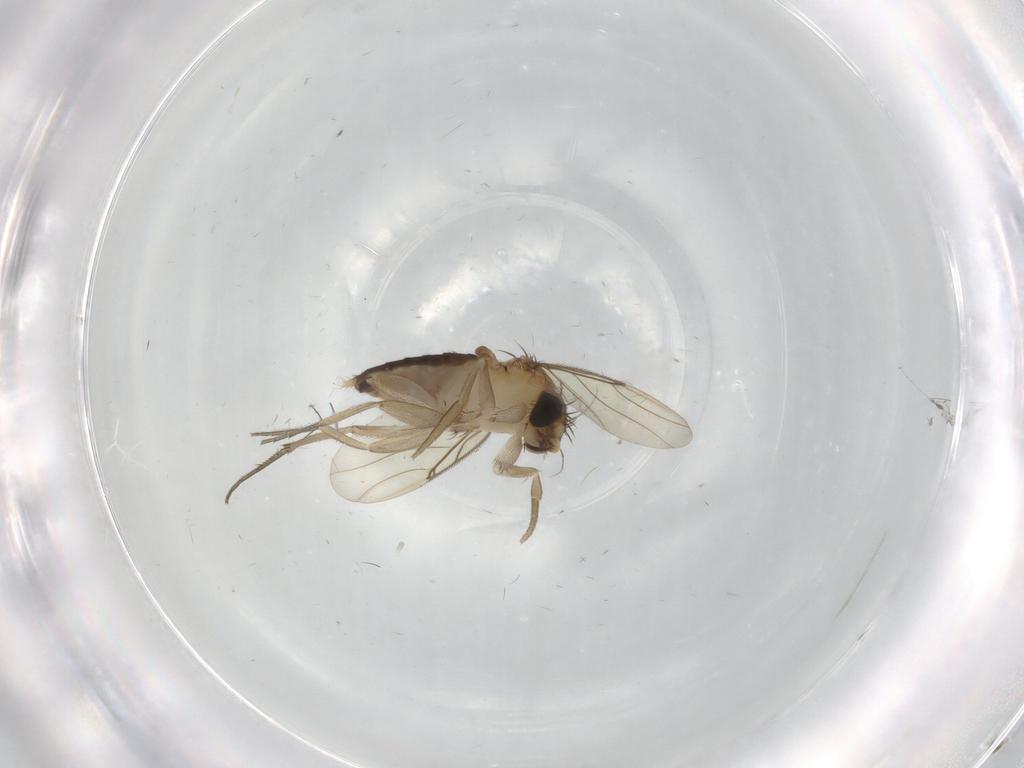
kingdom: Animalia
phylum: Arthropoda
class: Insecta
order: Diptera
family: Phoridae
